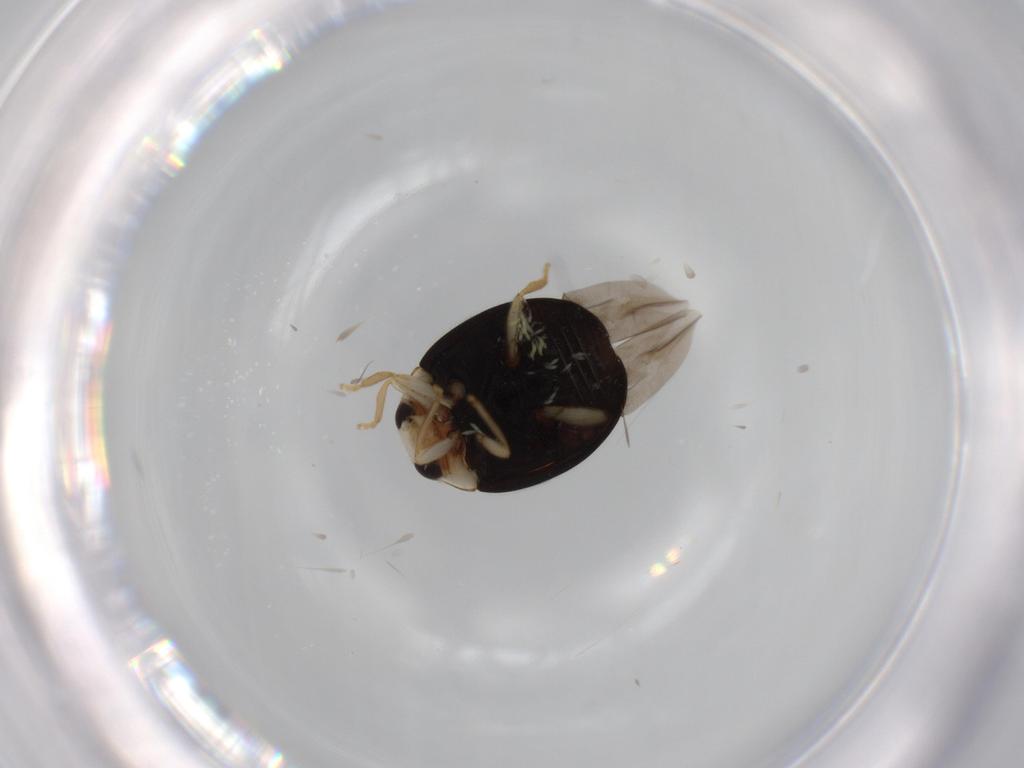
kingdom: Animalia
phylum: Arthropoda
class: Insecta
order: Coleoptera
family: Coccinellidae
